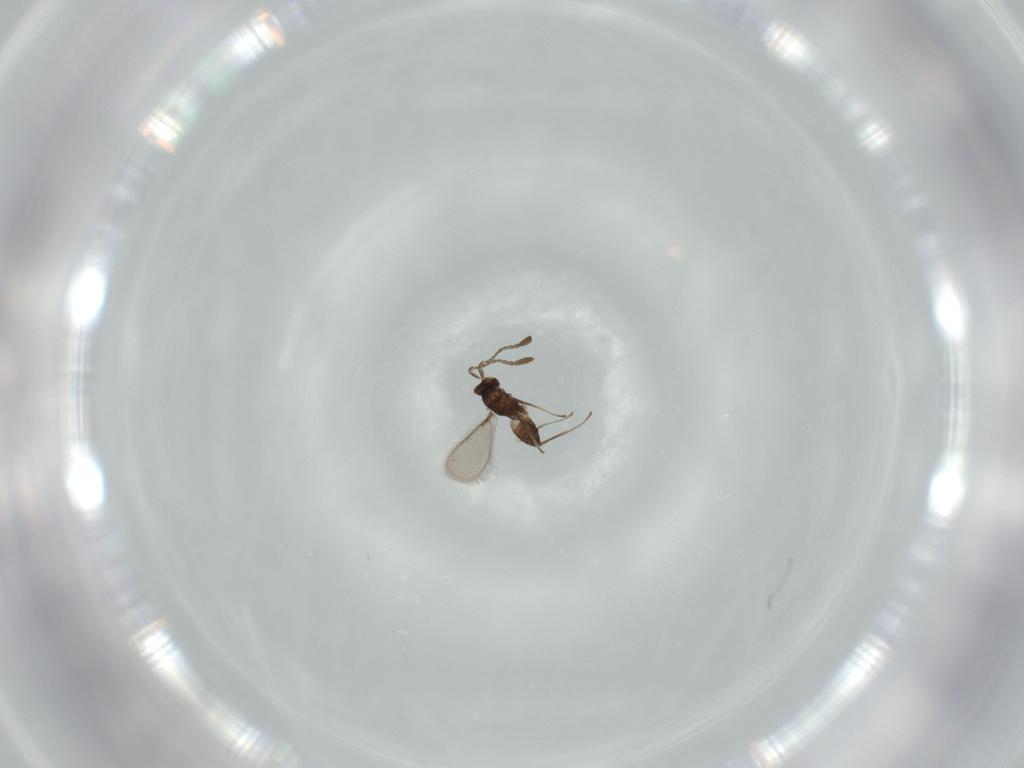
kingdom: Animalia
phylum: Arthropoda
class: Insecta
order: Hymenoptera
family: Mymaridae
